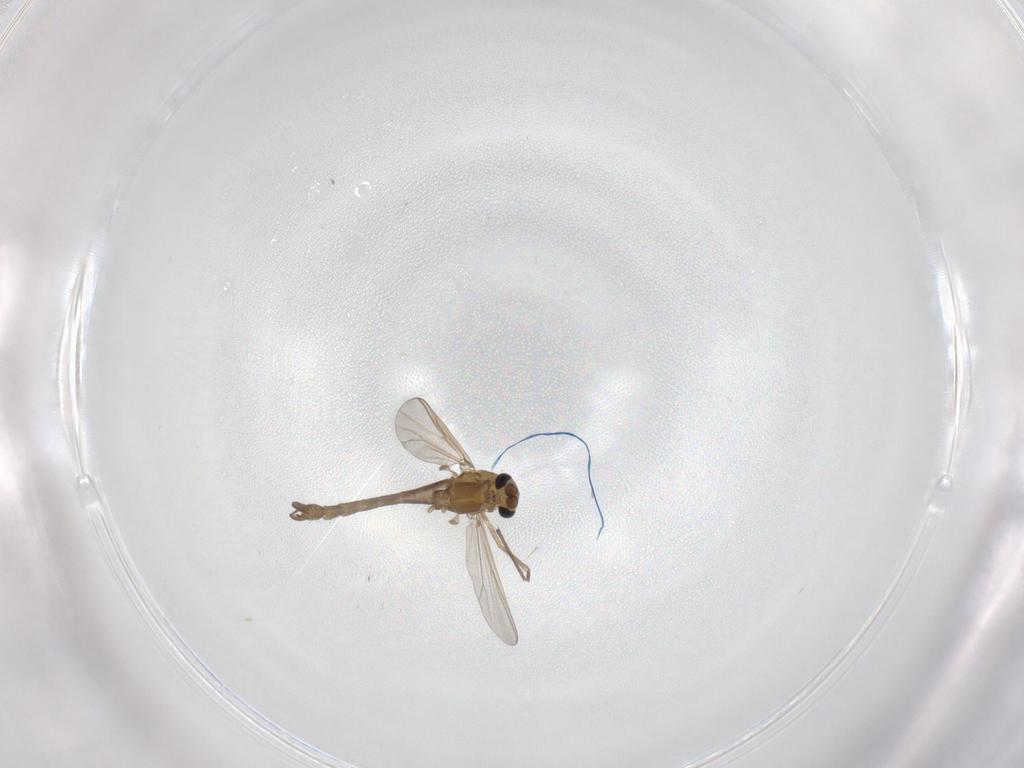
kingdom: Animalia
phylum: Arthropoda
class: Insecta
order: Diptera
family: Chironomidae
